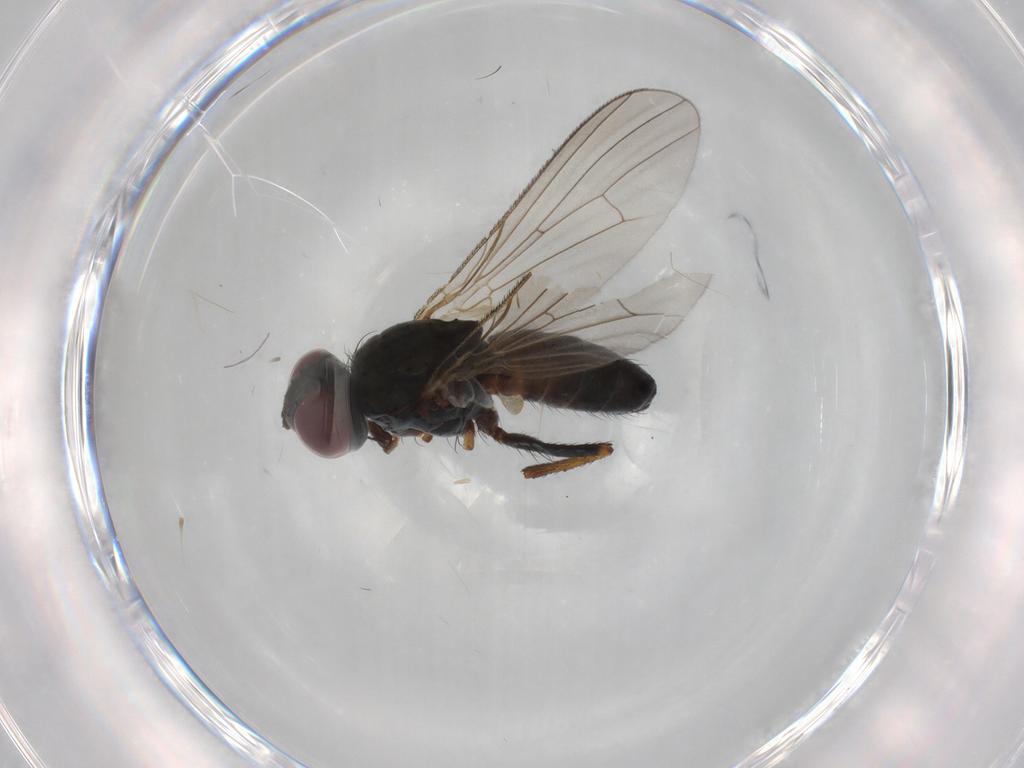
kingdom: Animalia
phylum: Arthropoda
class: Insecta
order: Diptera
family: Muscidae
